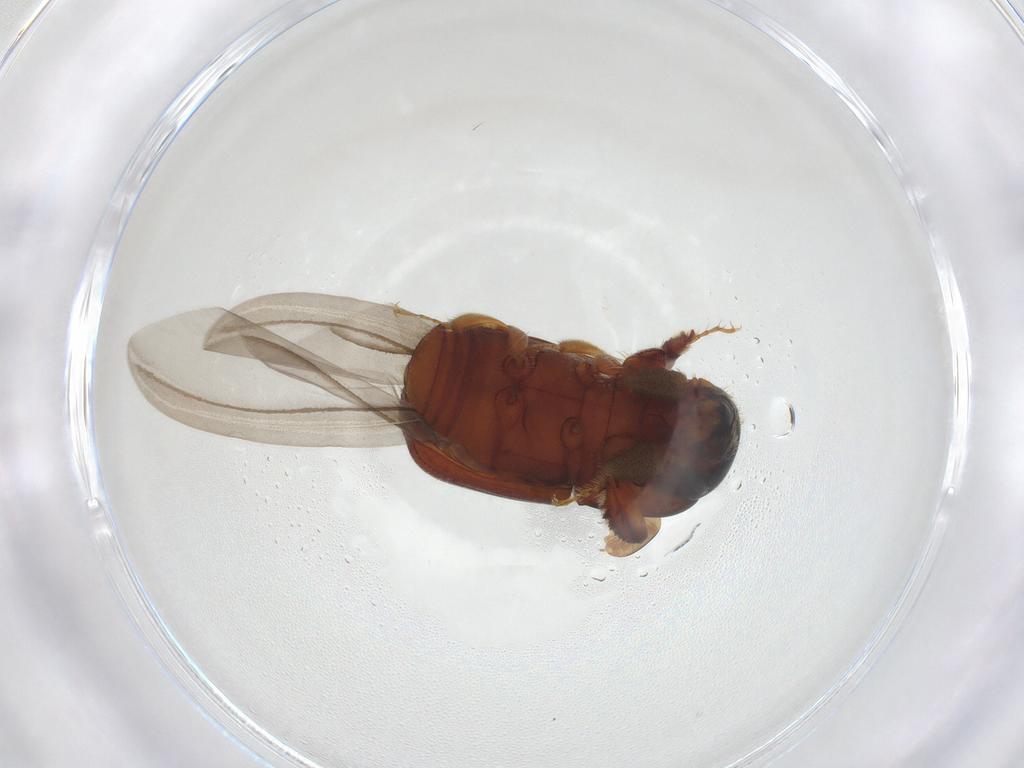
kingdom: Animalia
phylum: Arthropoda
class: Insecta
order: Coleoptera
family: Curculionidae
